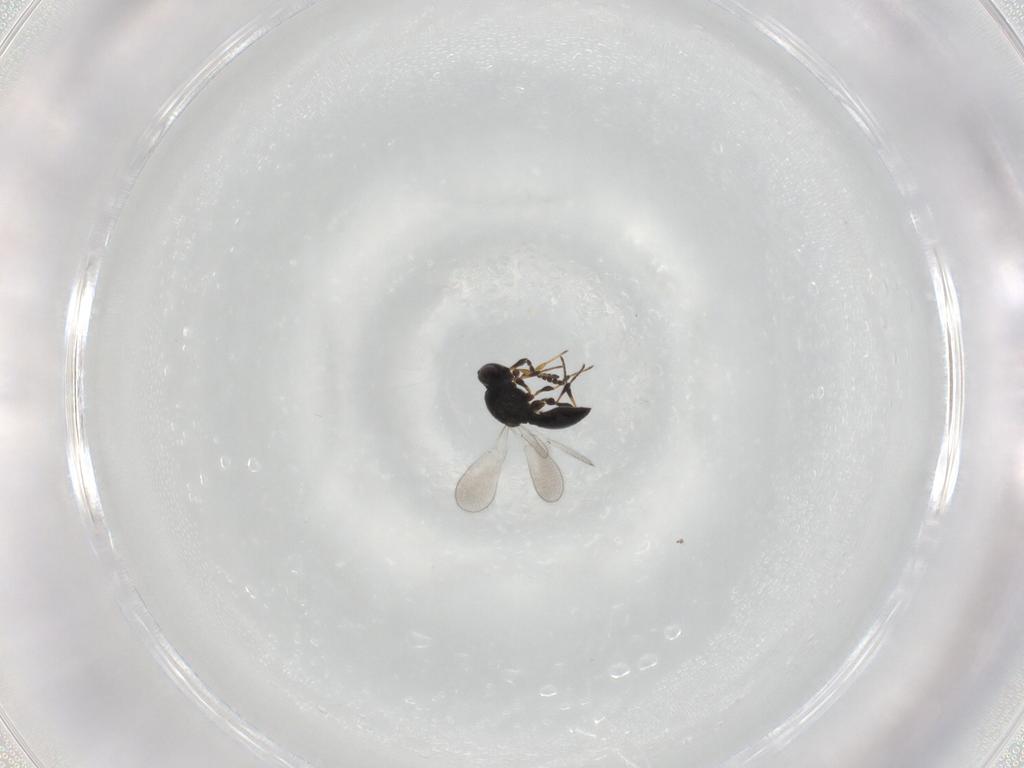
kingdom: Animalia
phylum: Arthropoda
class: Insecta
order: Hymenoptera
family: Platygastridae
